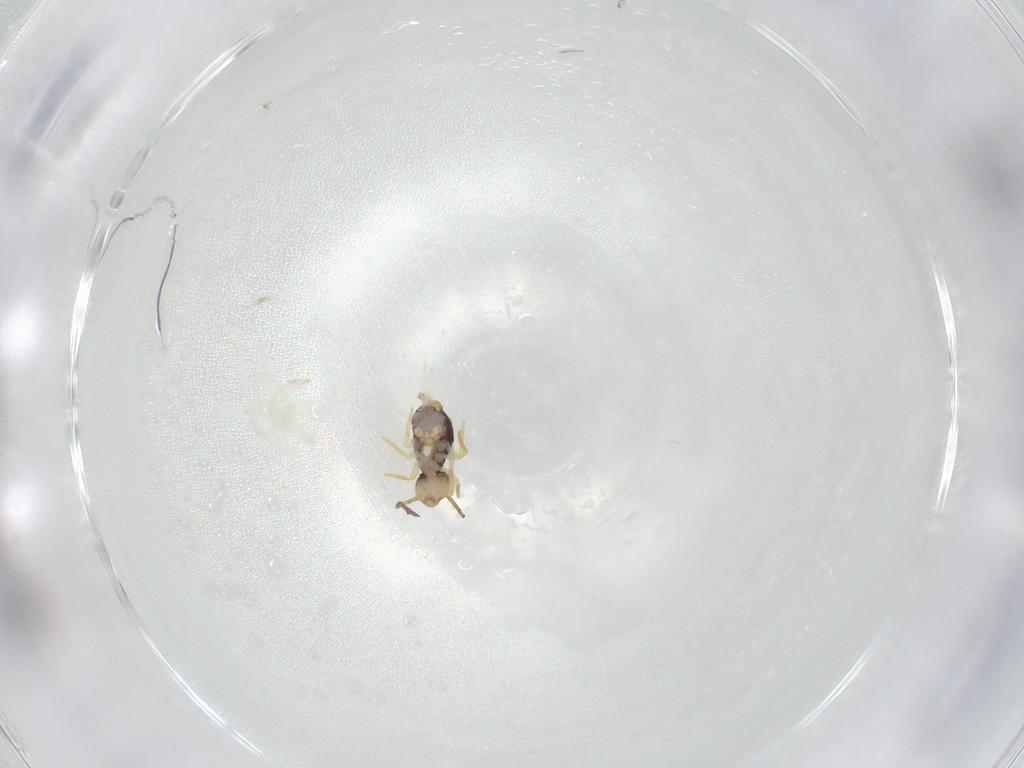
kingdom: Animalia
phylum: Arthropoda
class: Arachnida
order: Trombidiformes
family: Bdellidae
